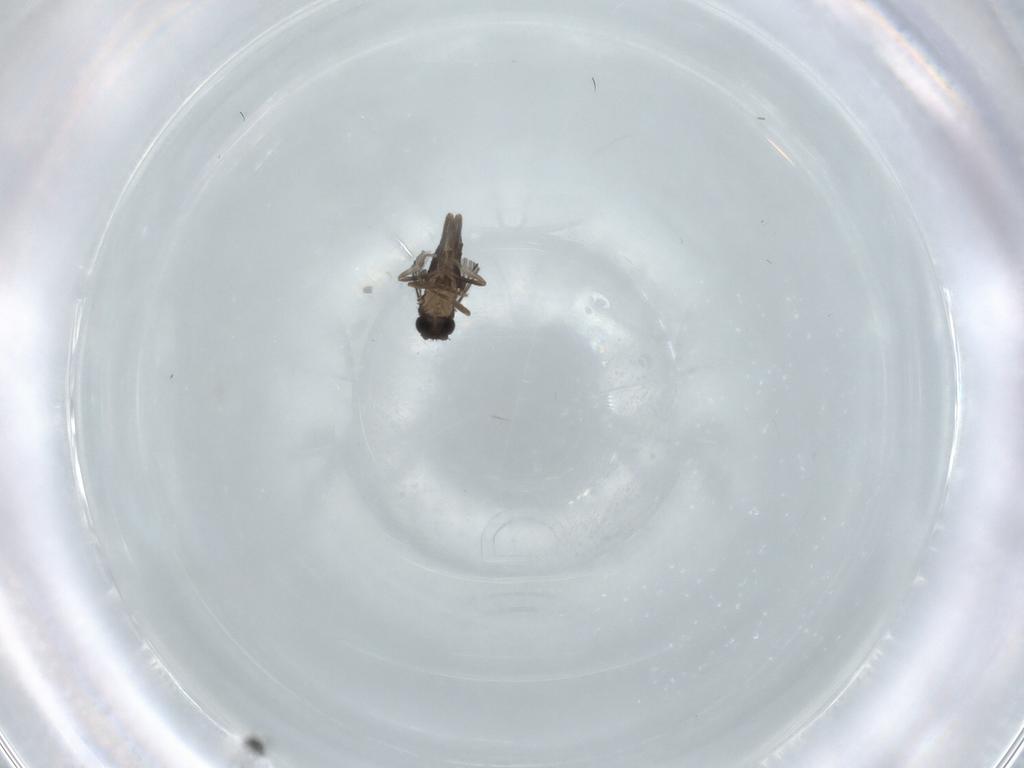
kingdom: Animalia
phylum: Arthropoda
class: Insecta
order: Diptera
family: Chironomidae
